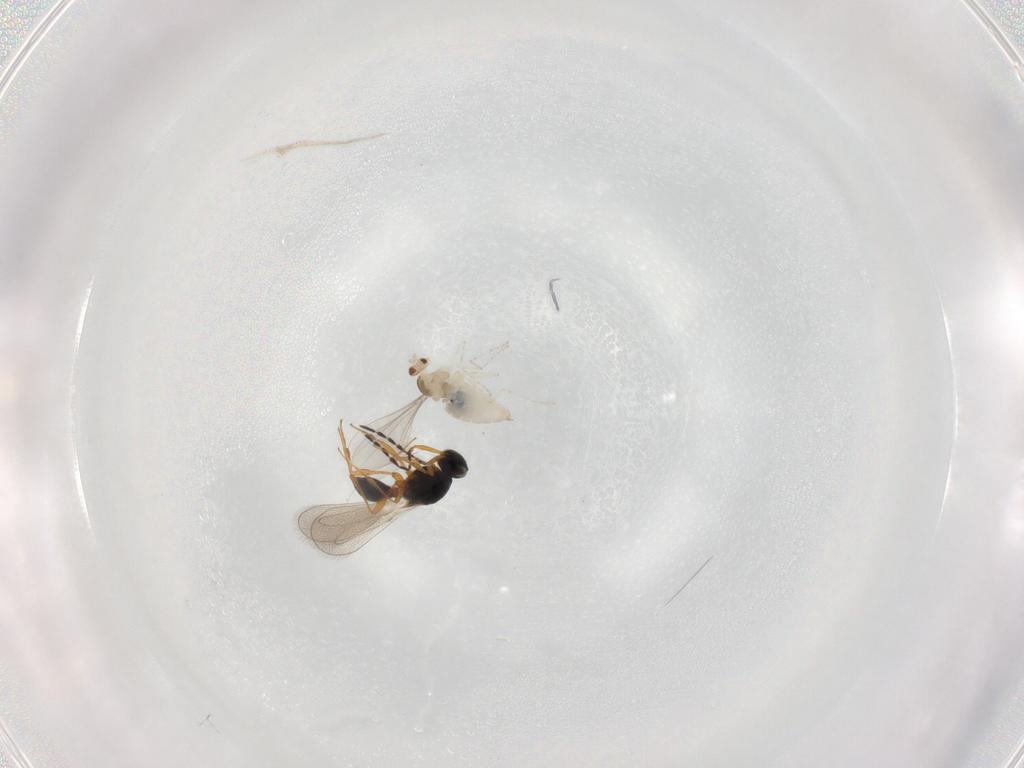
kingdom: Animalia
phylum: Arthropoda
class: Insecta
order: Diptera
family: Cecidomyiidae
